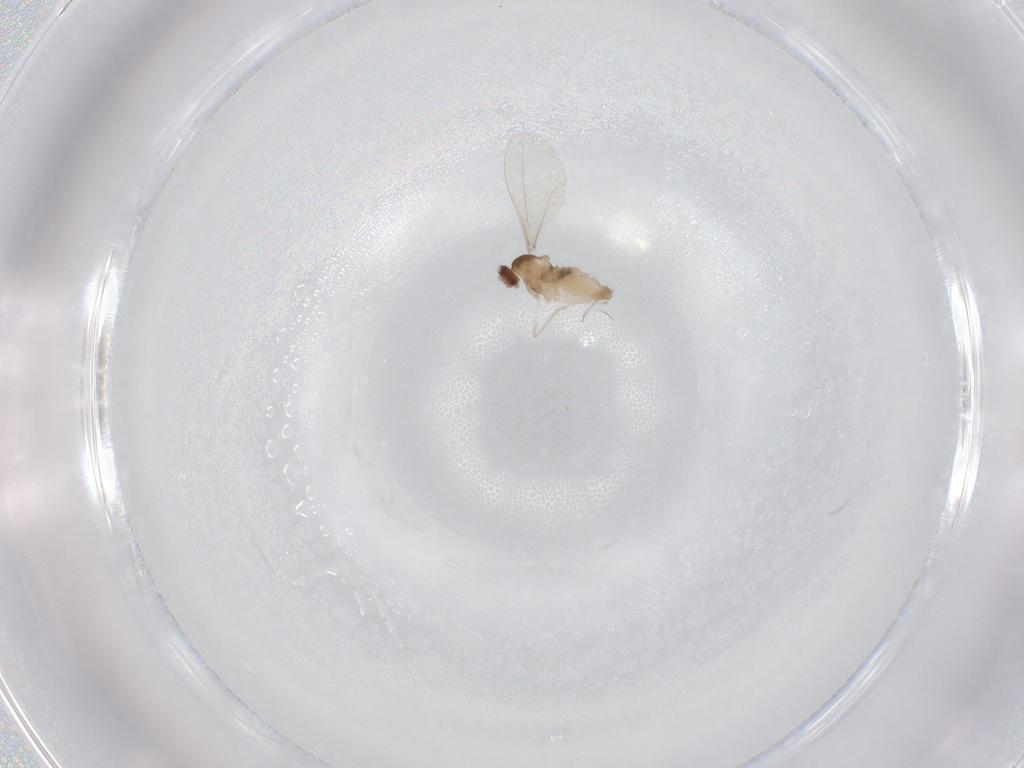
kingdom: Animalia
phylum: Arthropoda
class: Insecta
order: Diptera
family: Cecidomyiidae
